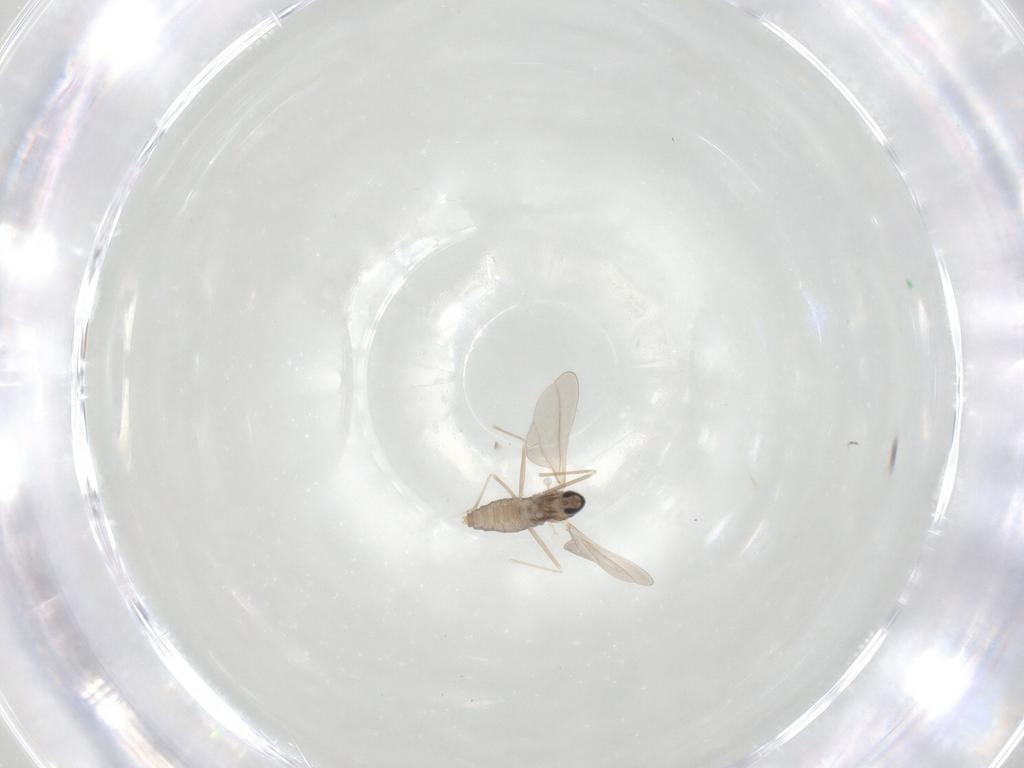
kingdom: Animalia
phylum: Arthropoda
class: Insecta
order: Diptera
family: Cecidomyiidae
